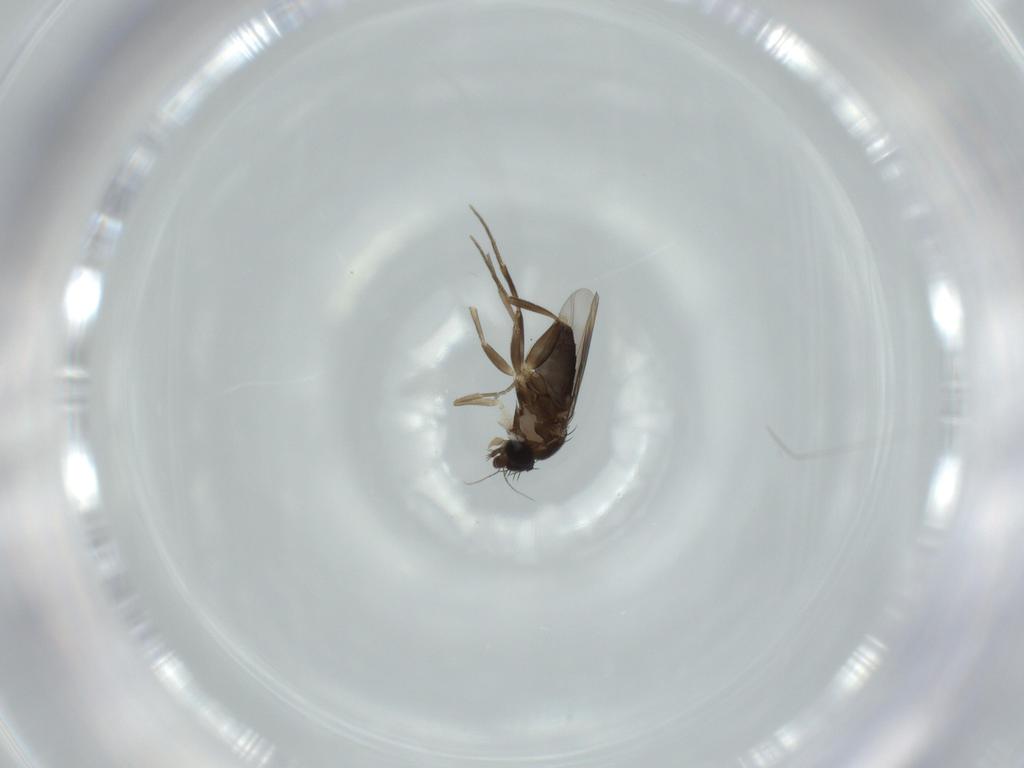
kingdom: Animalia
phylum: Arthropoda
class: Insecta
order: Diptera
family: Phoridae
